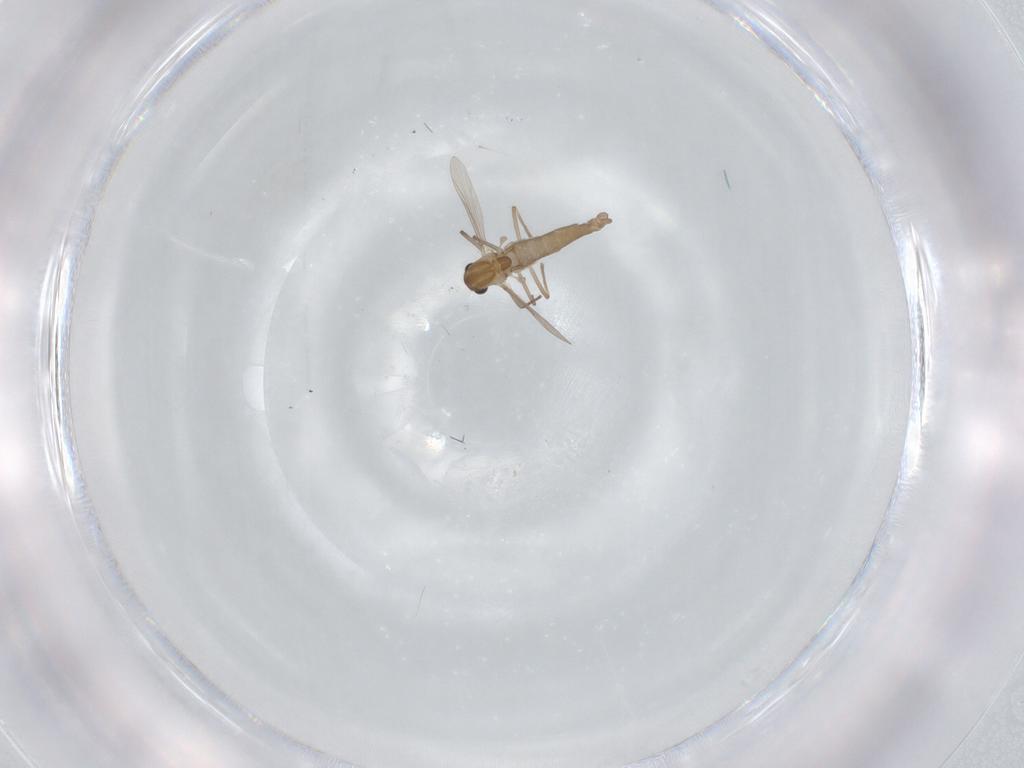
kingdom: Animalia
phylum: Arthropoda
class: Insecta
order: Diptera
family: Chironomidae
